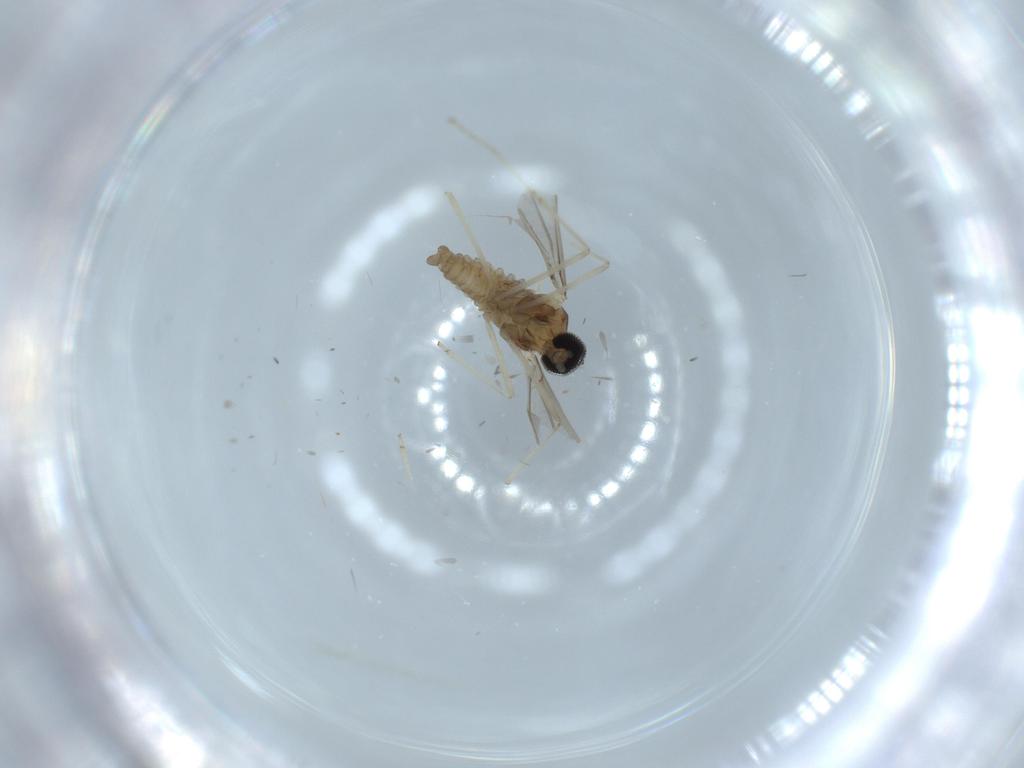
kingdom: Animalia
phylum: Arthropoda
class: Insecta
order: Diptera
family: Cecidomyiidae
